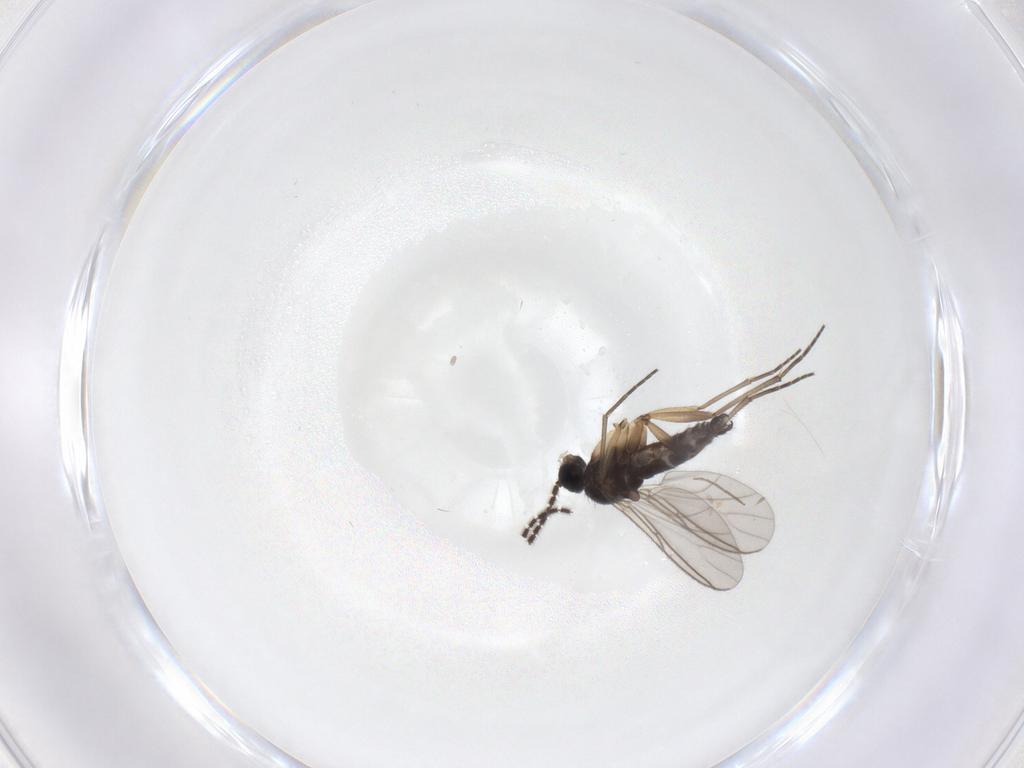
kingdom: Animalia
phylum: Arthropoda
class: Insecta
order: Diptera
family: Sciaridae
